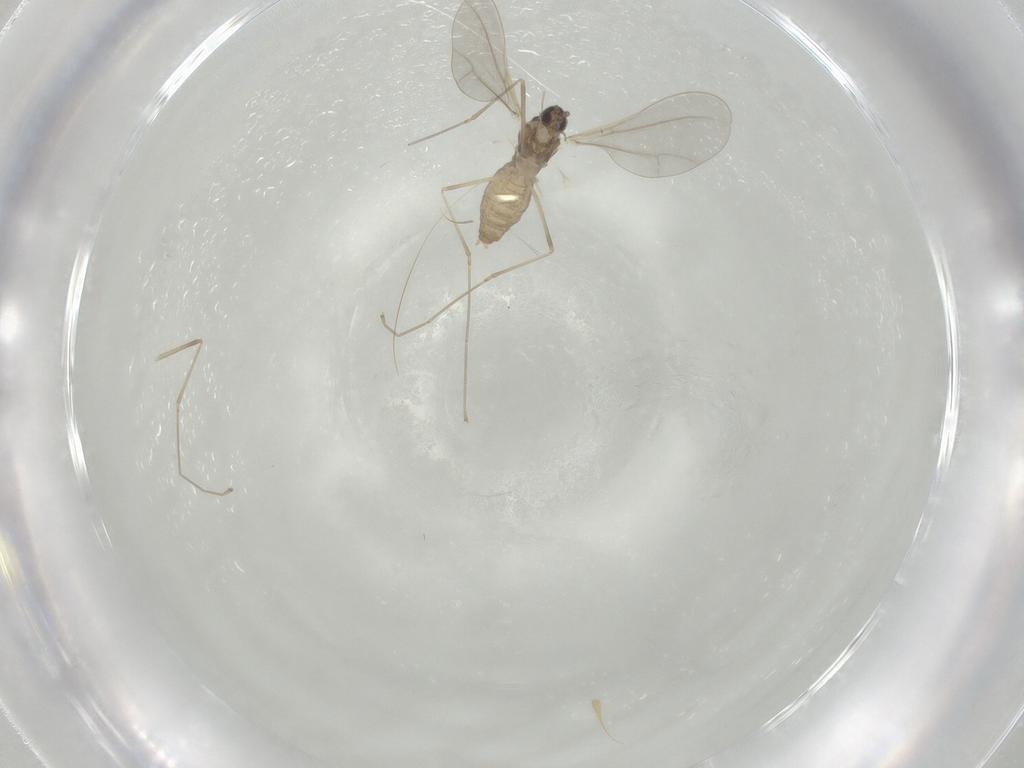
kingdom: Animalia
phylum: Arthropoda
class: Insecta
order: Diptera
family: Cecidomyiidae
